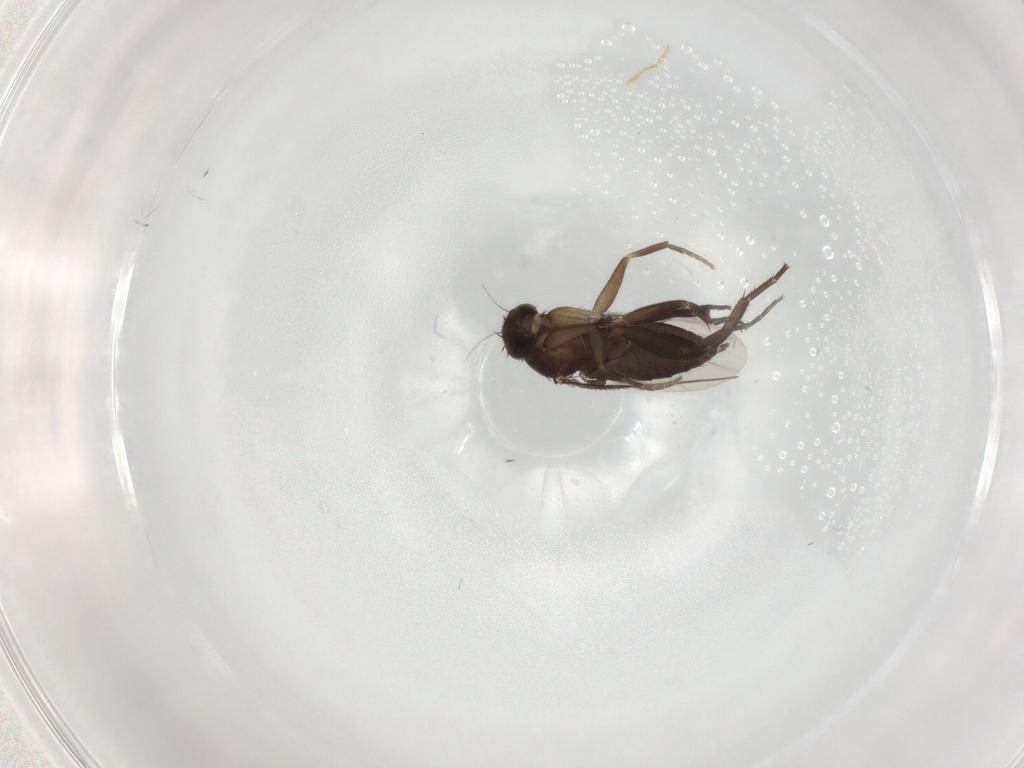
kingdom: Animalia
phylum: Arthropoda
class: Insecta
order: Diptera
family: Phoridae
